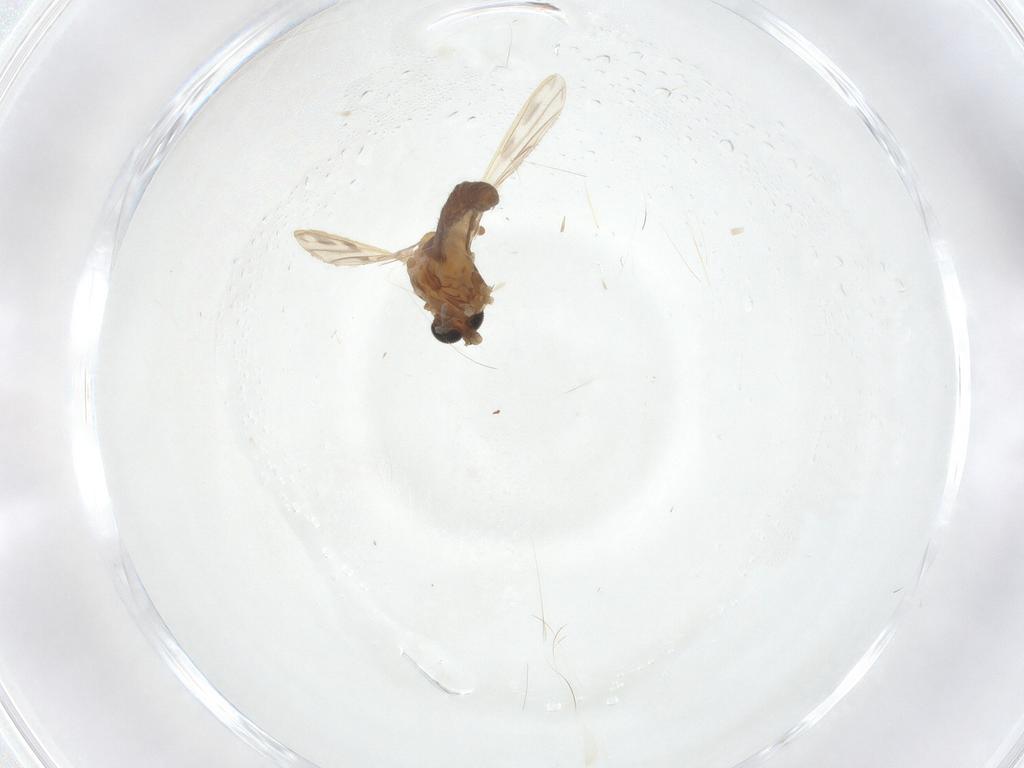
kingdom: Animalia
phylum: Arthropoda
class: Insecta
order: Diptera
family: Chironomidae
